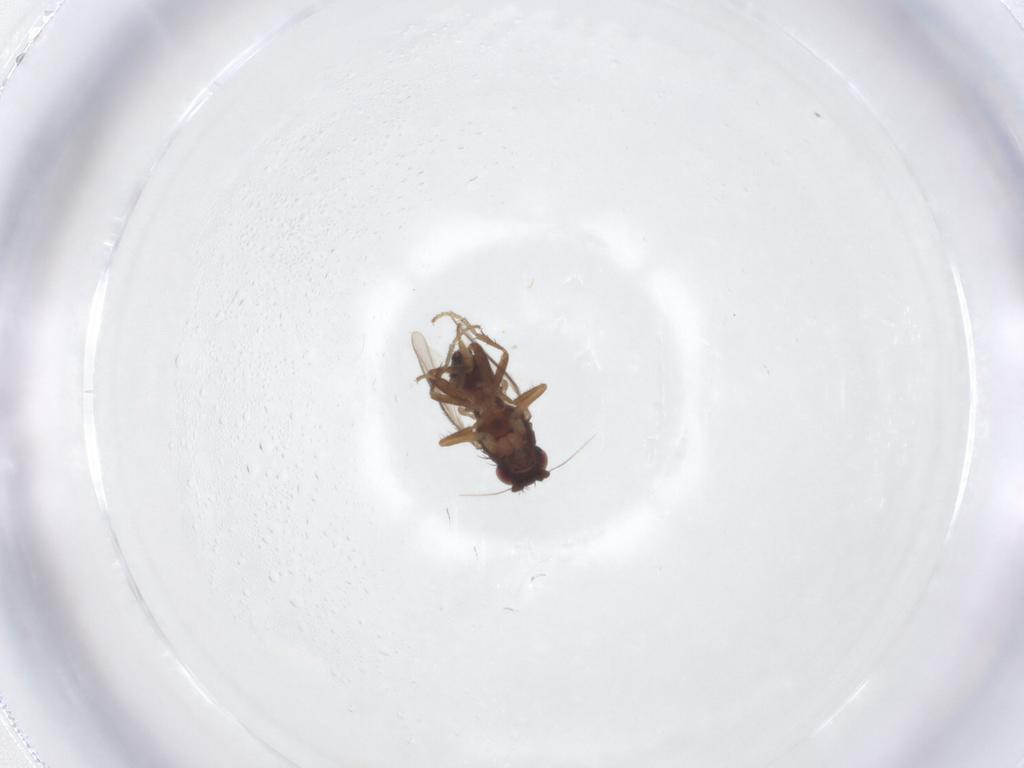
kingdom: Animalia
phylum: Arthropoda
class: Insecta
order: Diptera
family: Sphaeroceridae
